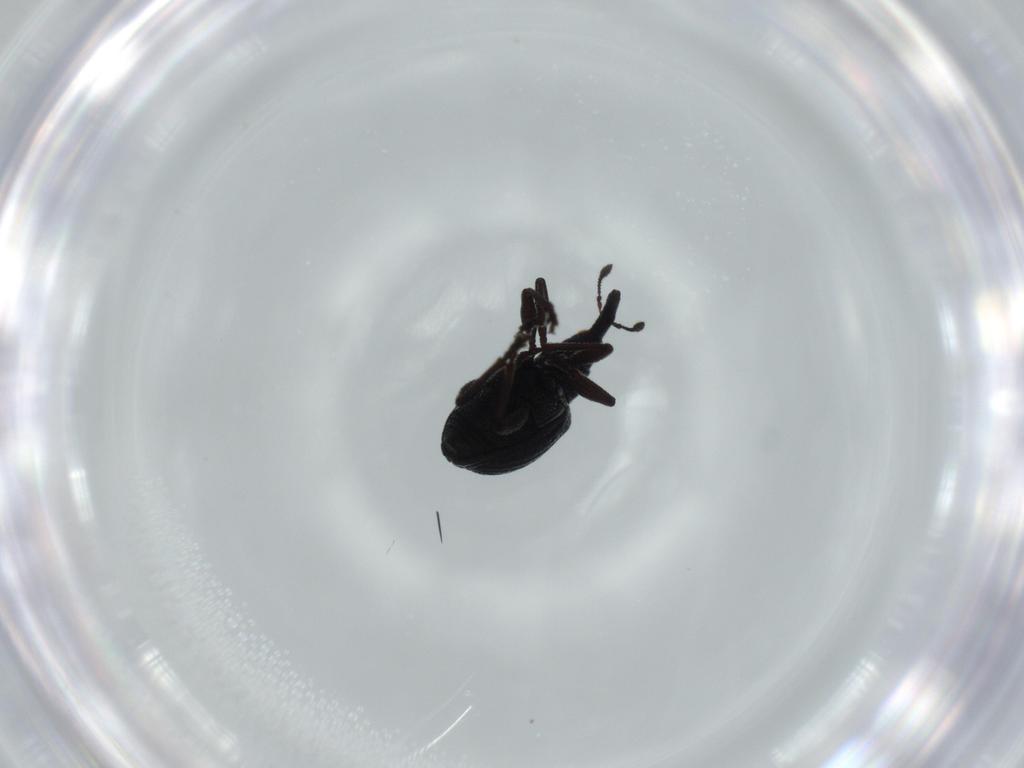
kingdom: Animalia
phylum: Arthropoda
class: Insecta
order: Coleoptera
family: Brentidae
